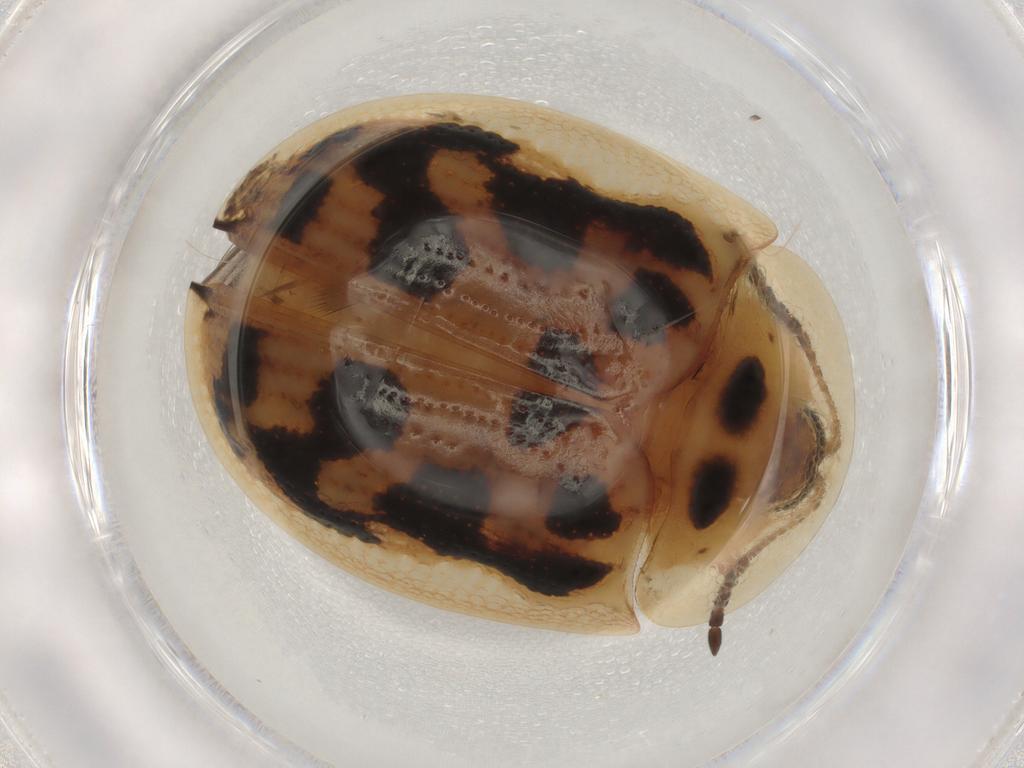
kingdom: Animalia
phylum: Arthropoda
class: Insecta
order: Coleoptera
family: Chrysomelidae
